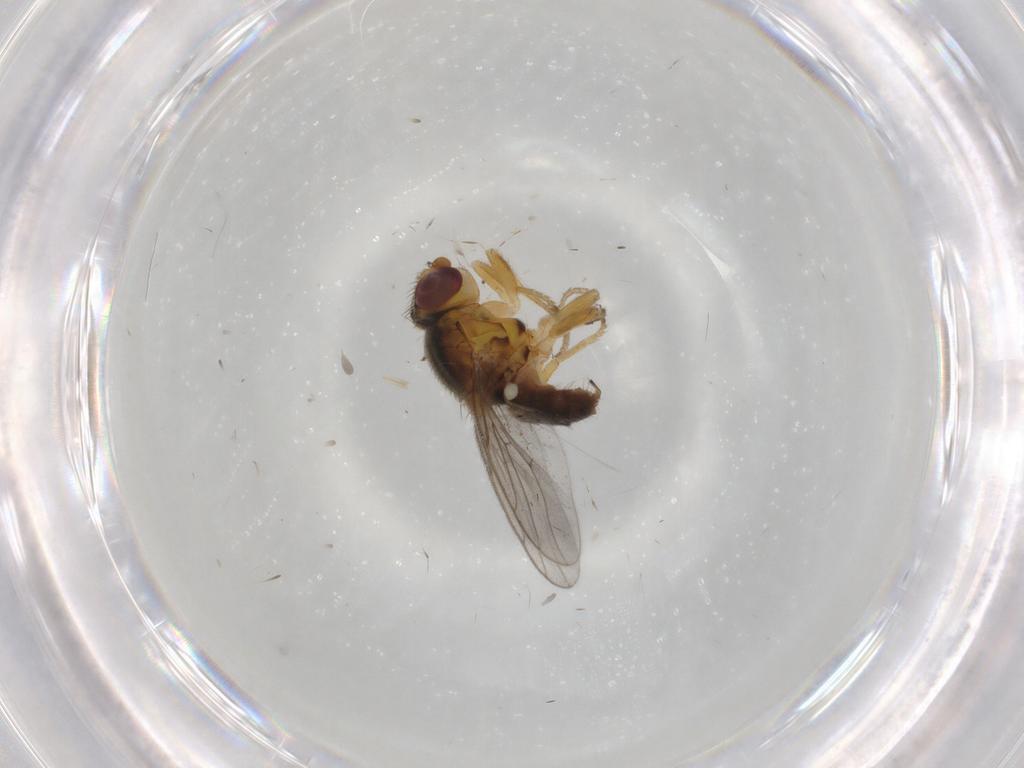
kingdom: Animalia
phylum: Arthropoda
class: Insecta
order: Diptera
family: Chloropidae
